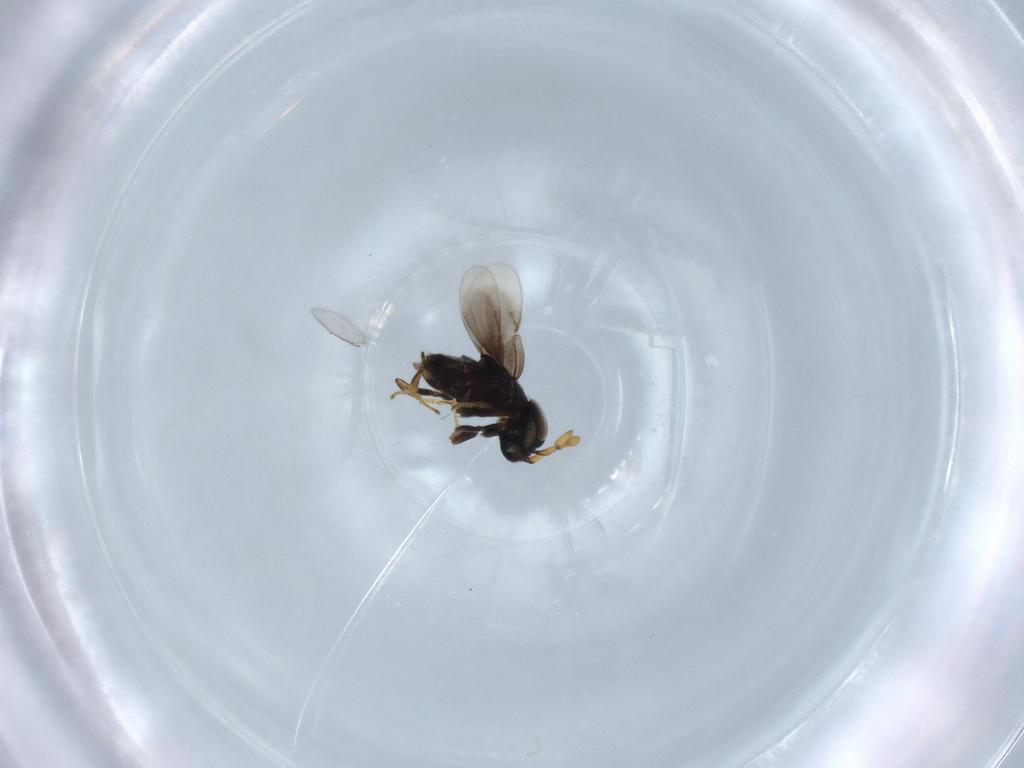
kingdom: Animalia
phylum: Arthropoda
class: Insecta
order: Hymenoptera
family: Encyrtidae
